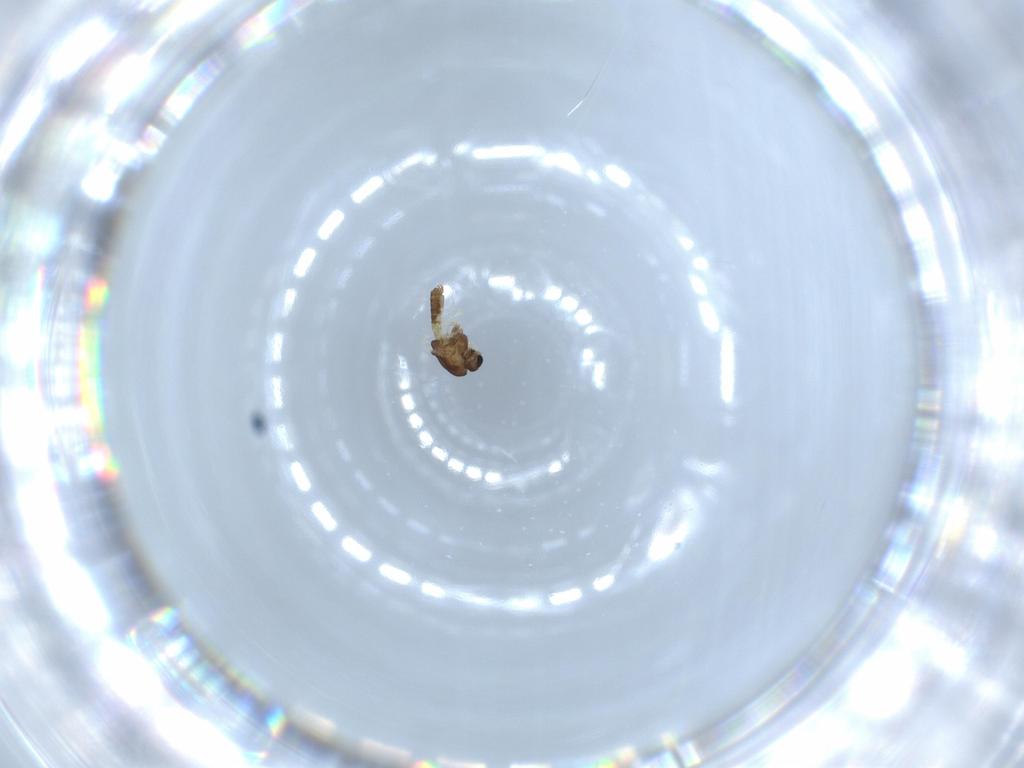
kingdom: Animalia
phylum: Arthropoda
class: Insecta
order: Diptera
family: Chironomidae
